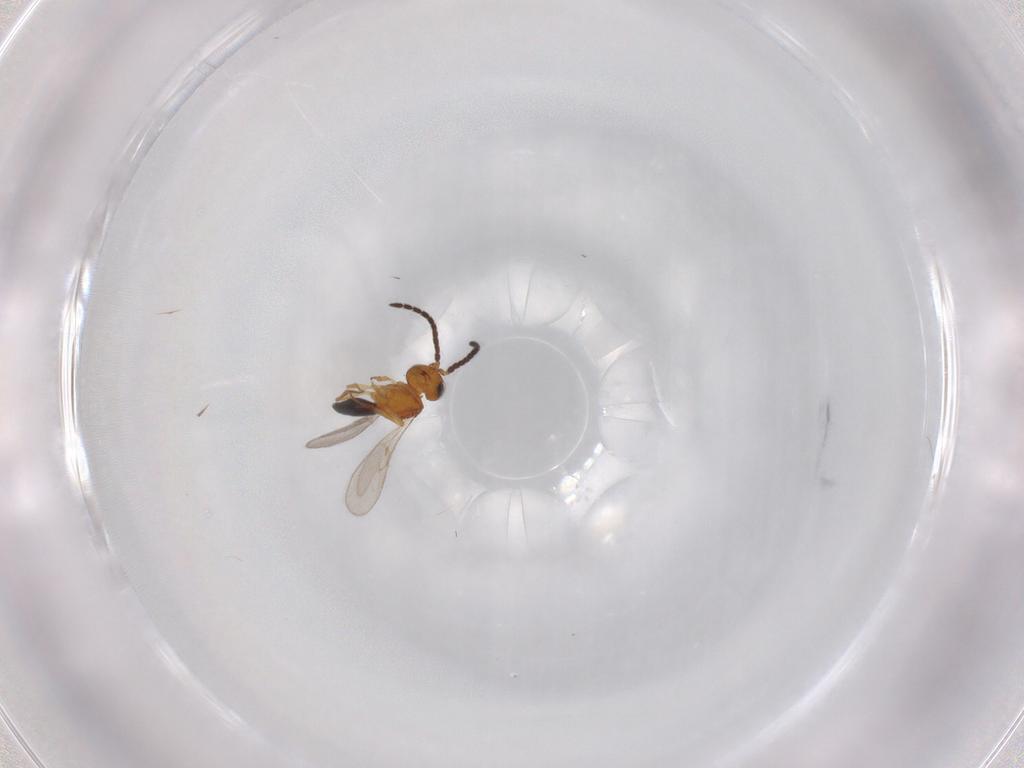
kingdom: Animalia
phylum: Arthropoda
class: Insecta
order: Hymenoptera
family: Scelionidae
